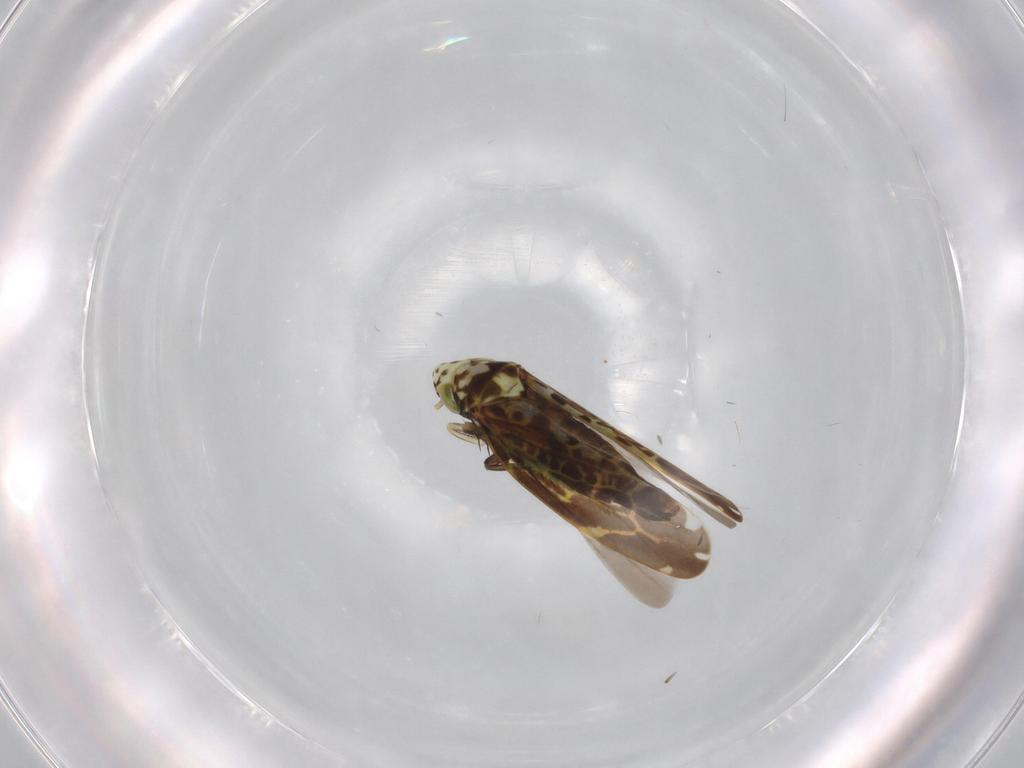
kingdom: Animalia
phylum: Arthropoda
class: Insecta
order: Hemiptera
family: Cicadellidae
